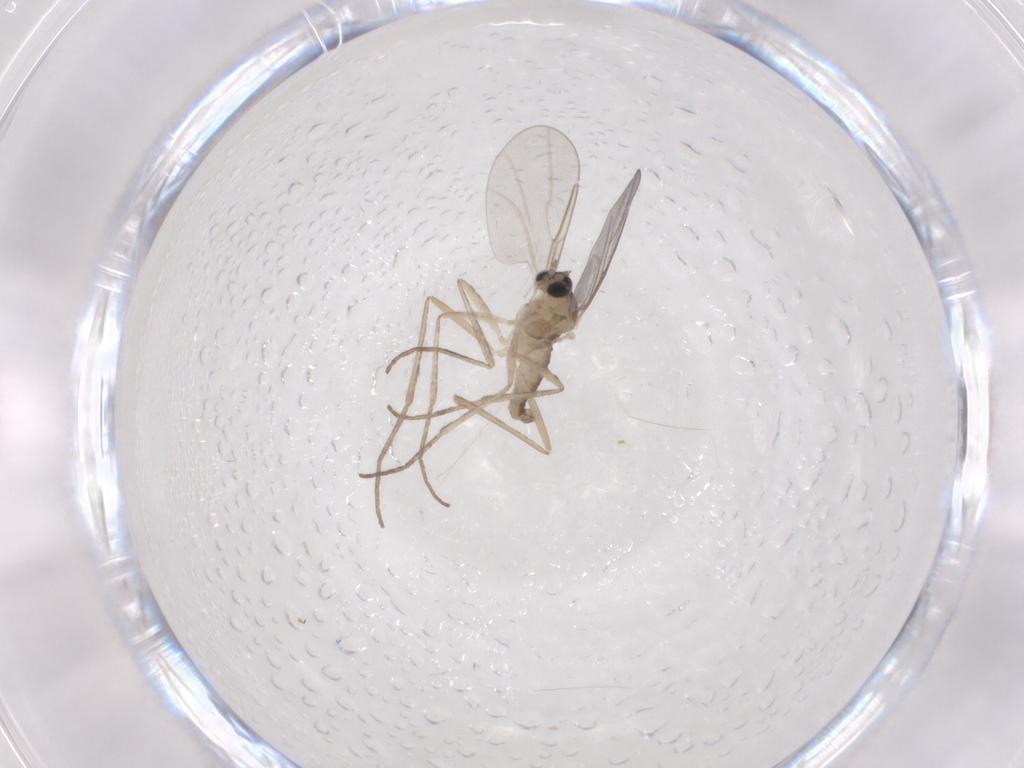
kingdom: Animalia
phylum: Arthropoda
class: Insecta
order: Diptera
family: Cecidomyiidae
